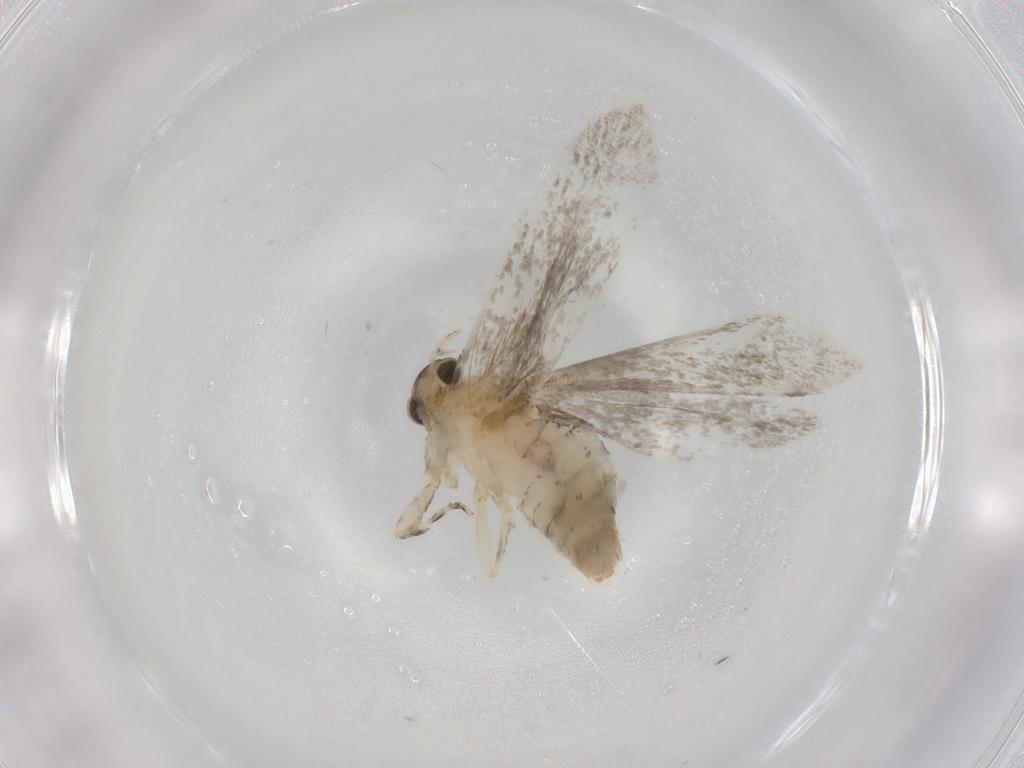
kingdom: Animalia
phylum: Arthropoda
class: Insecta
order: Lepidoptera
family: Tineidae
